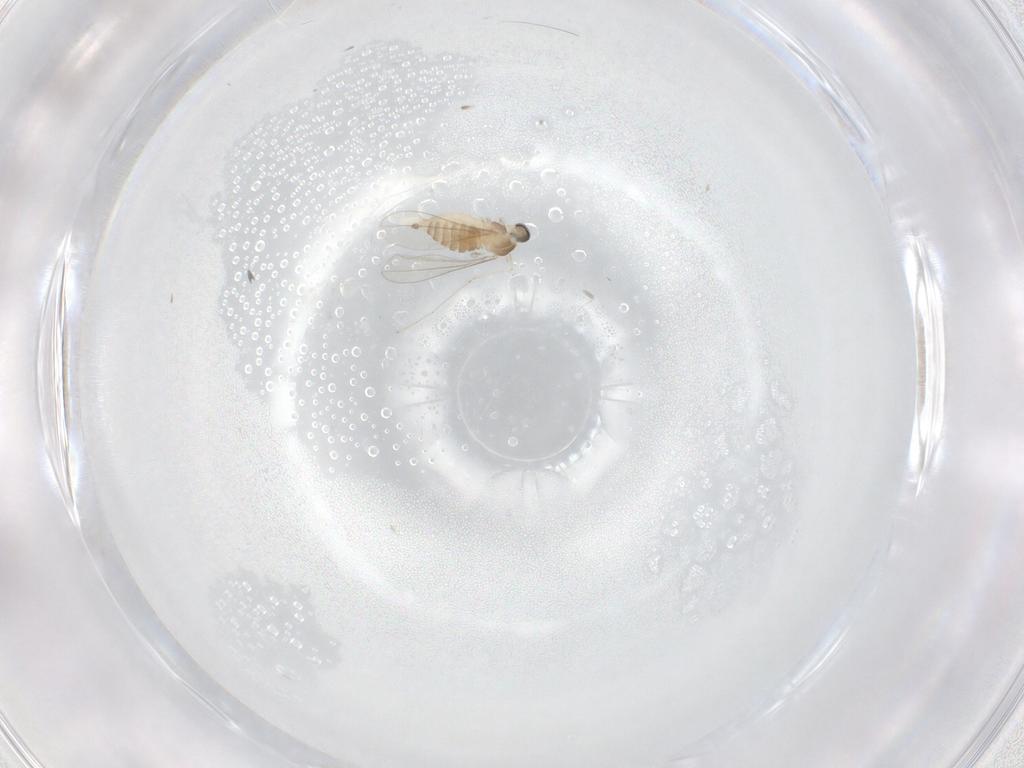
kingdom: Animalia
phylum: Arthropoda
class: Insecta
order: Diptera
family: Cecidomyiidae
